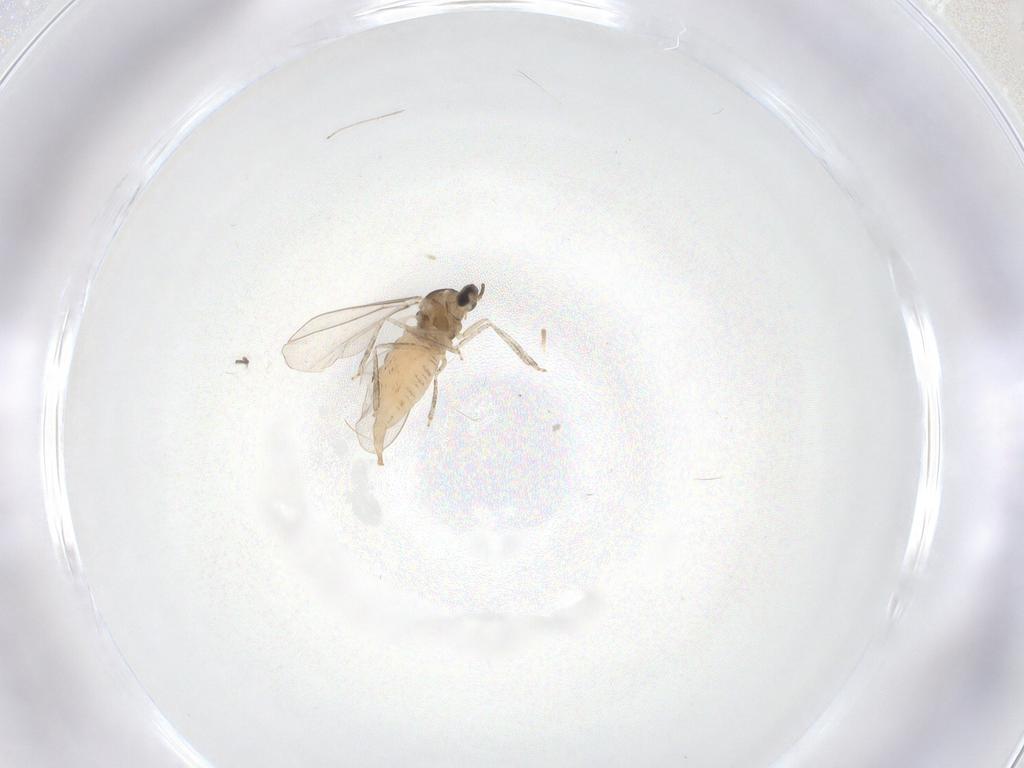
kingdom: Animalia
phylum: Arthropoda
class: Insecta
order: Diptera
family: Cecidomyiidae
